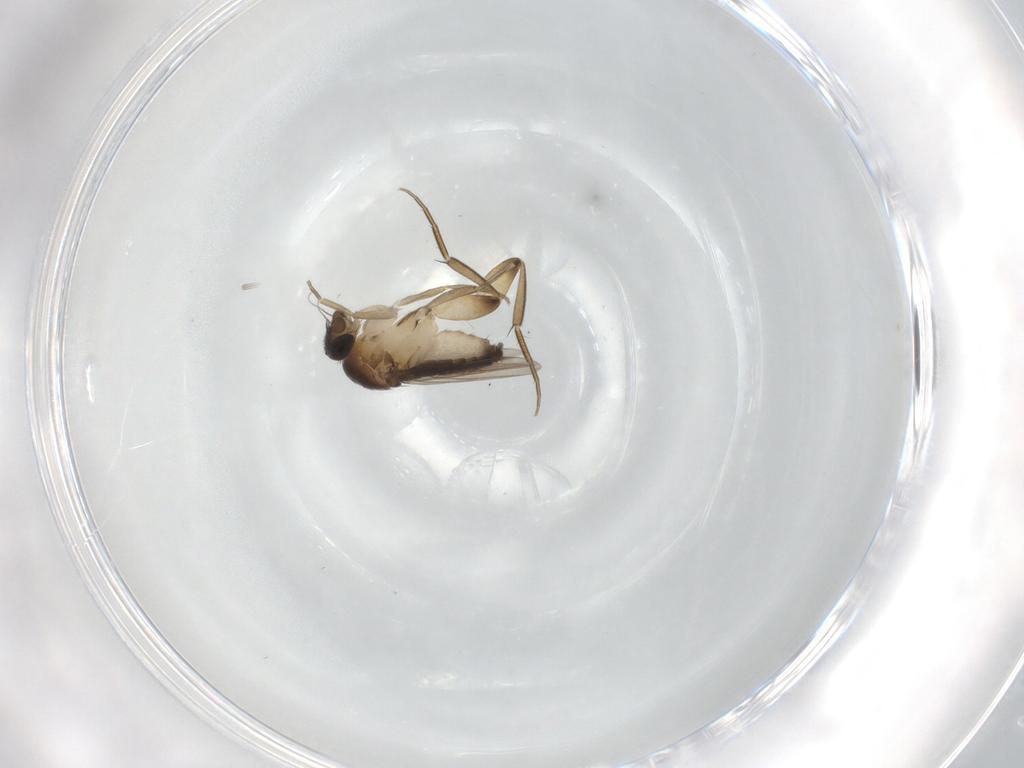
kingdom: Animalia
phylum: Arthropoda
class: Insecta
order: Diptera
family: Phoridae
